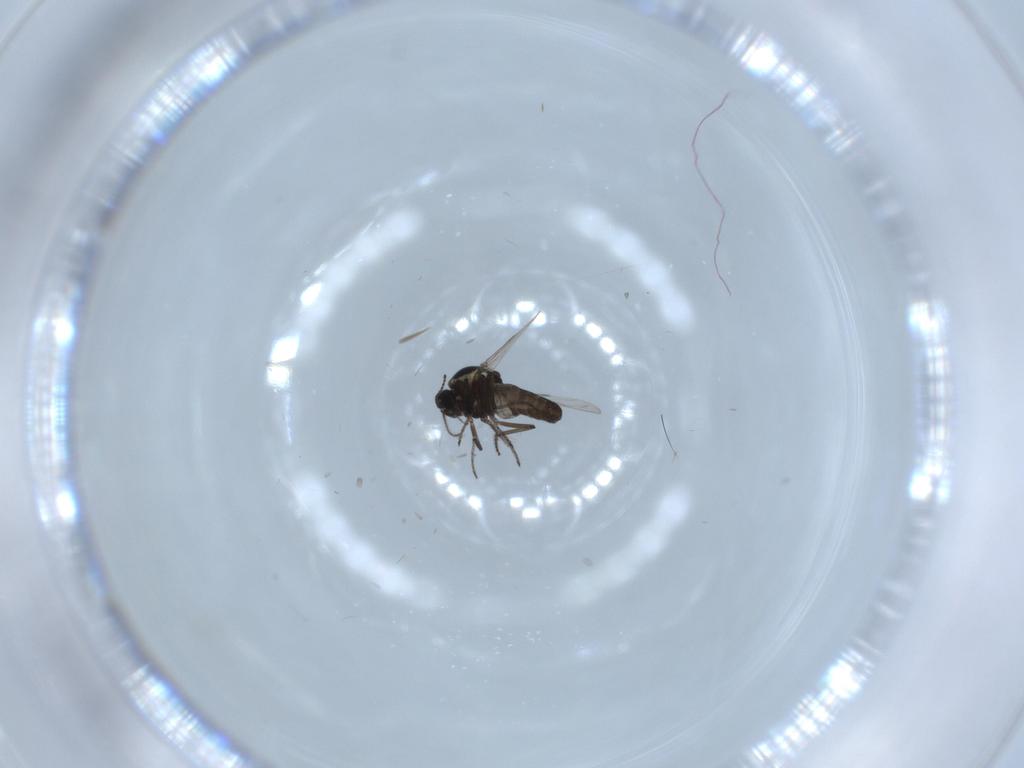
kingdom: Animalia
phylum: Arthropoda
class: Insecta
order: Diptera
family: Ceratopogonidae
